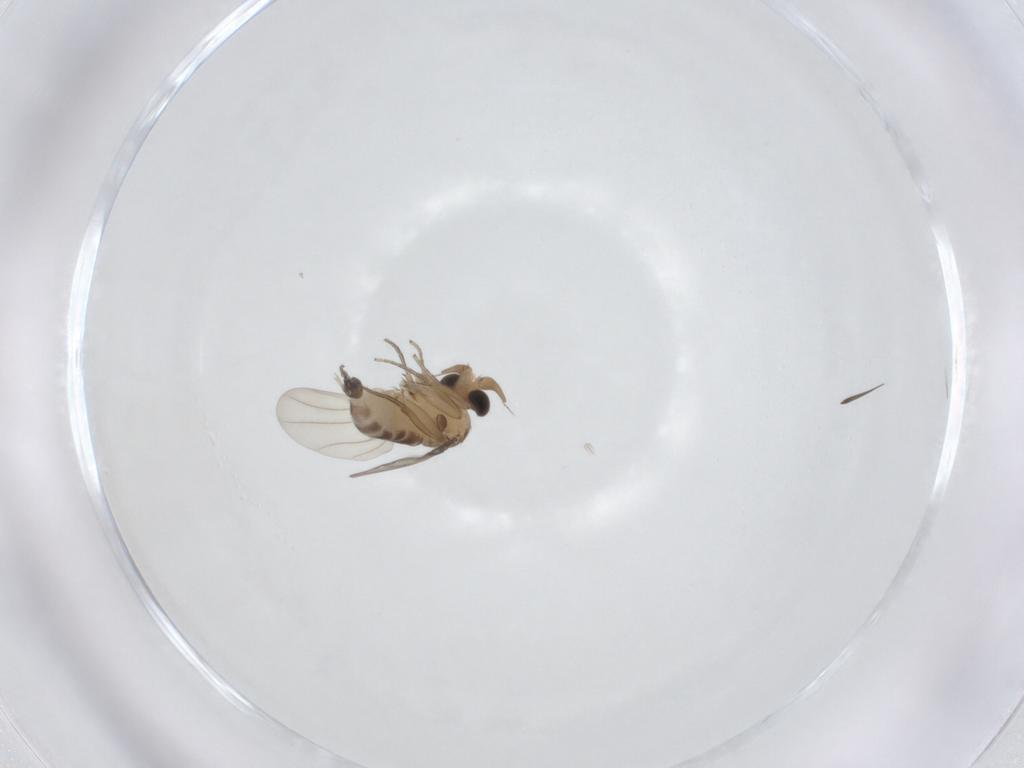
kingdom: Animalia
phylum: Arthropoda
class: Insecta
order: Diptera
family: Phoridae
